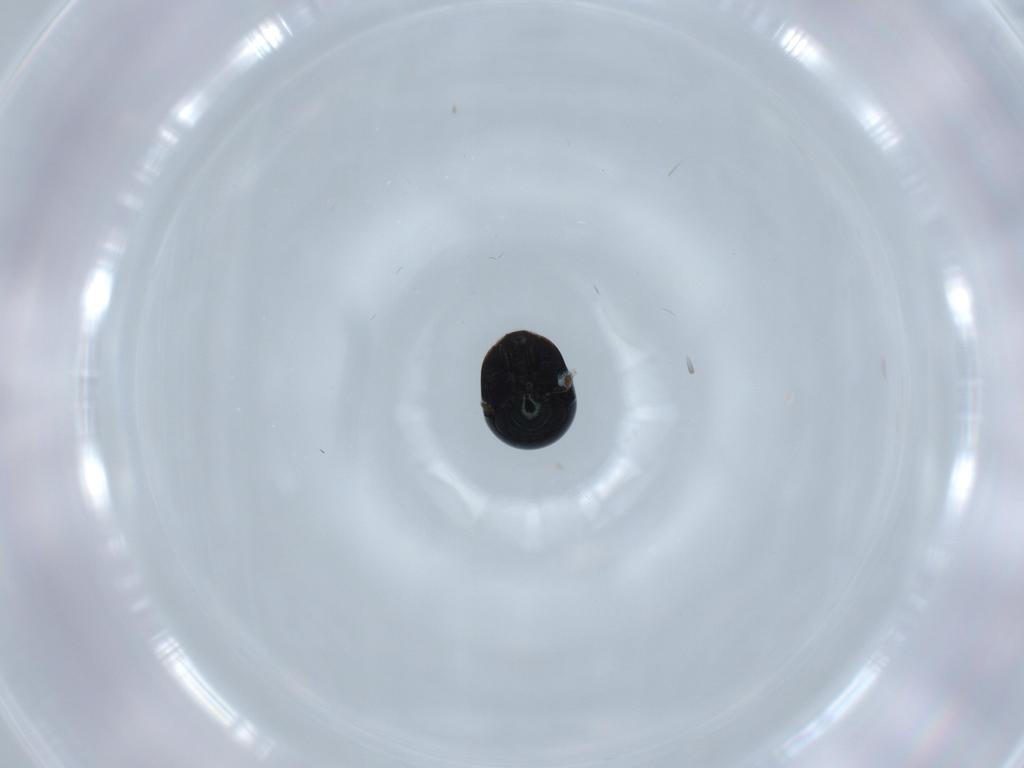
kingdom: Animalia
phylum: Arthropoda
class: Insecta
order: Coleoptera
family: Cybocephalidae
